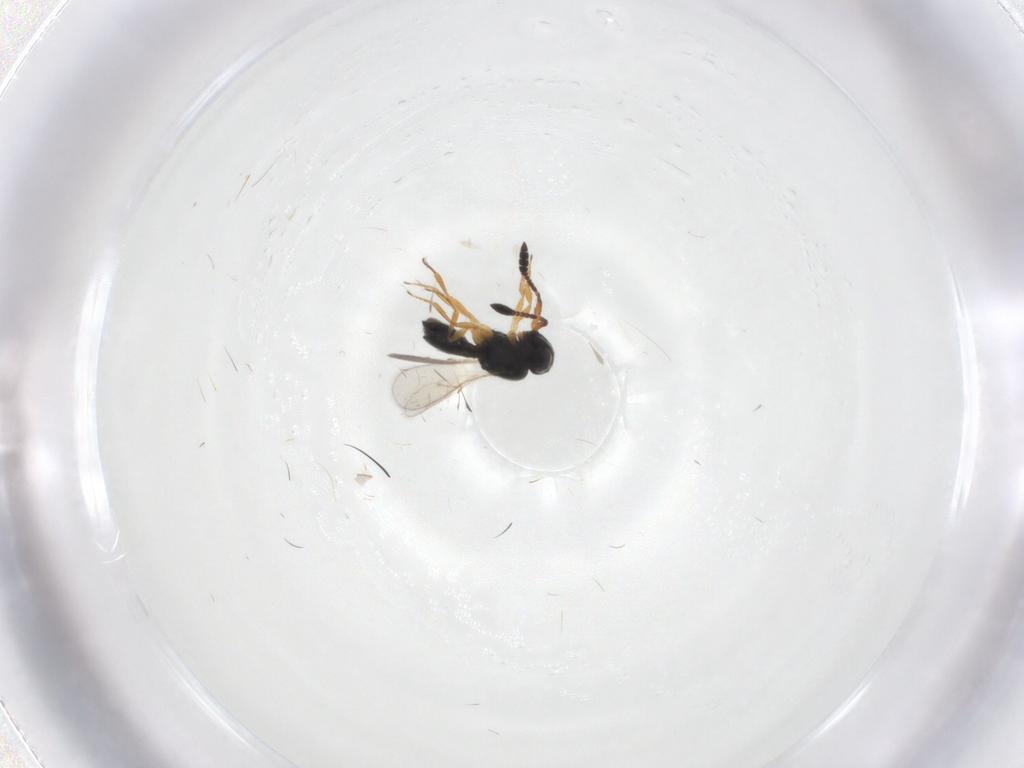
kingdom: Animalia
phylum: Arthropoda
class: Insecta
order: Hymenoptera
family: Scelionidae
